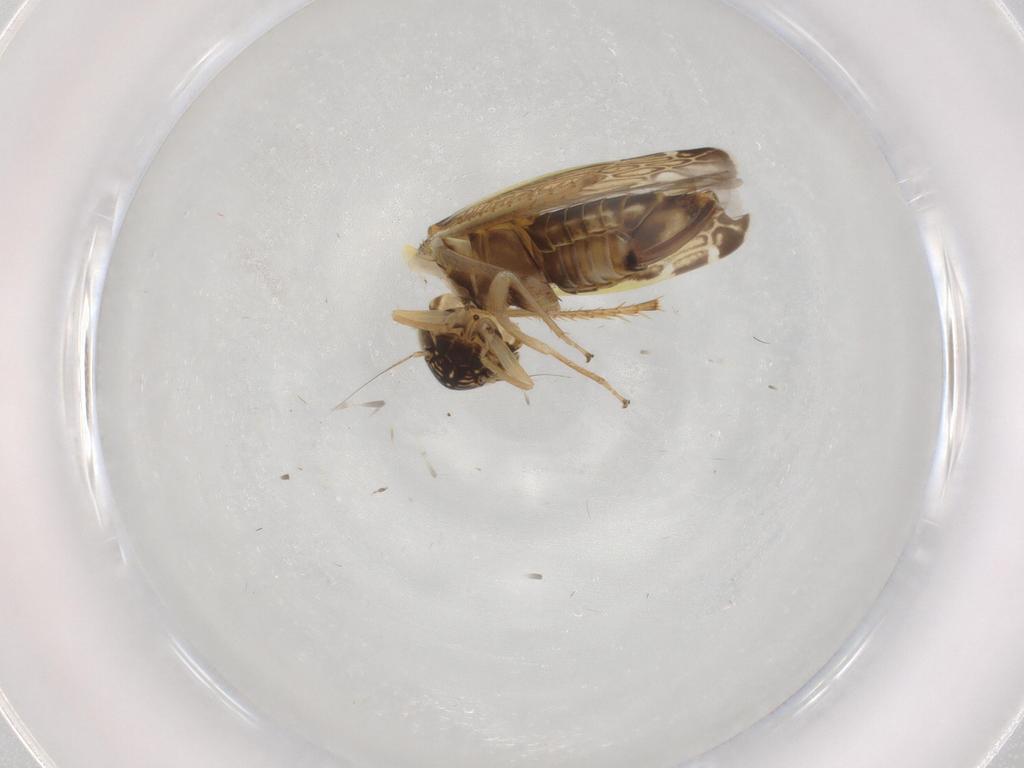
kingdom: Animalia
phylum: Arthropoda
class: Insecta
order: Hemiptera
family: Cicadellidae
